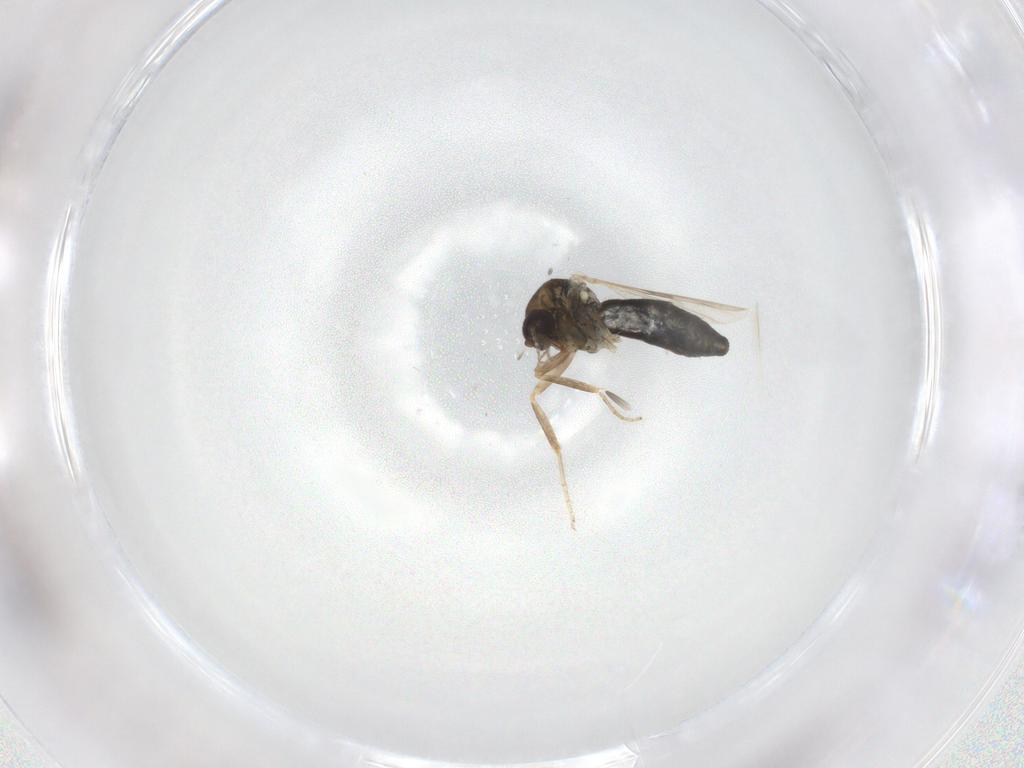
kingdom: Animalia
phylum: Arthropoda
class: Insecta
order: Diptera
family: Ceratopogonidae
